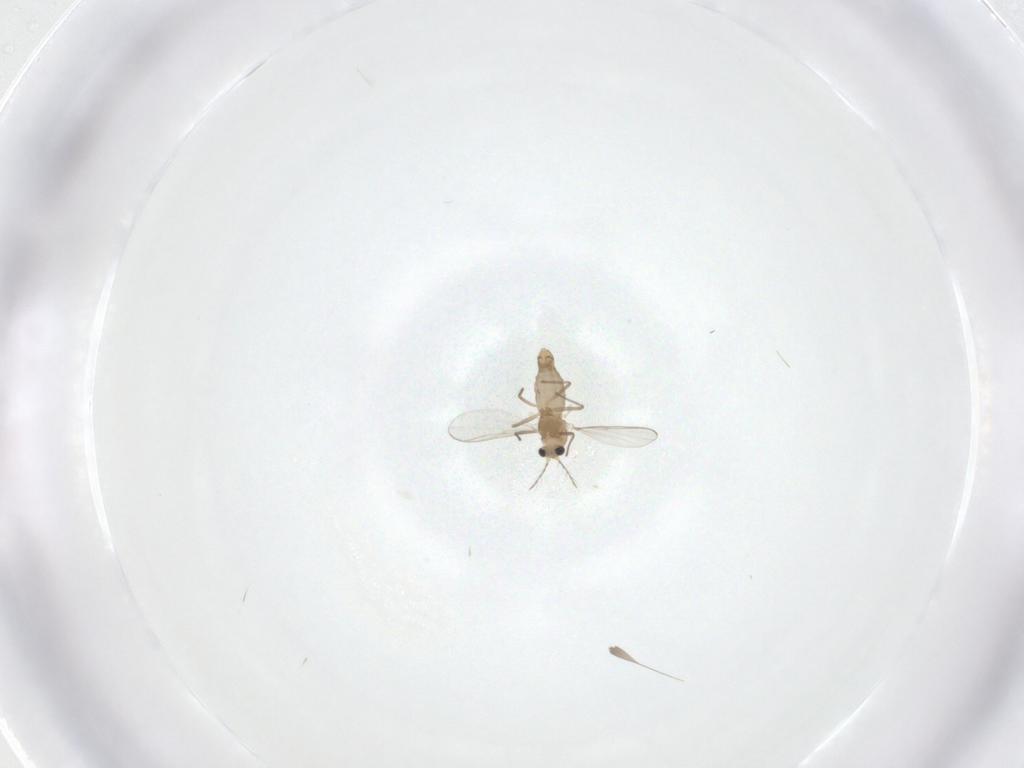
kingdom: Animalia
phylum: Arthropoda
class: Insecta
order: Diptera
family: Chironomidae
